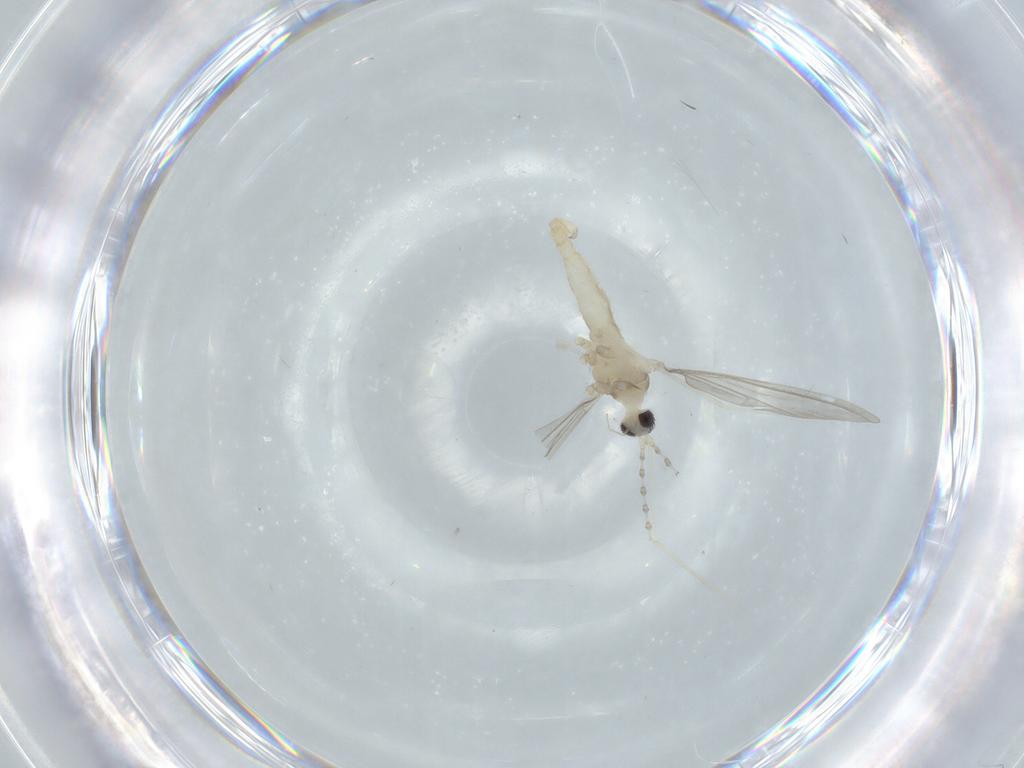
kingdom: Animalia
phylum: Arthropoda
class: Insecta
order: Diptera
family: Cecidomyiidae
